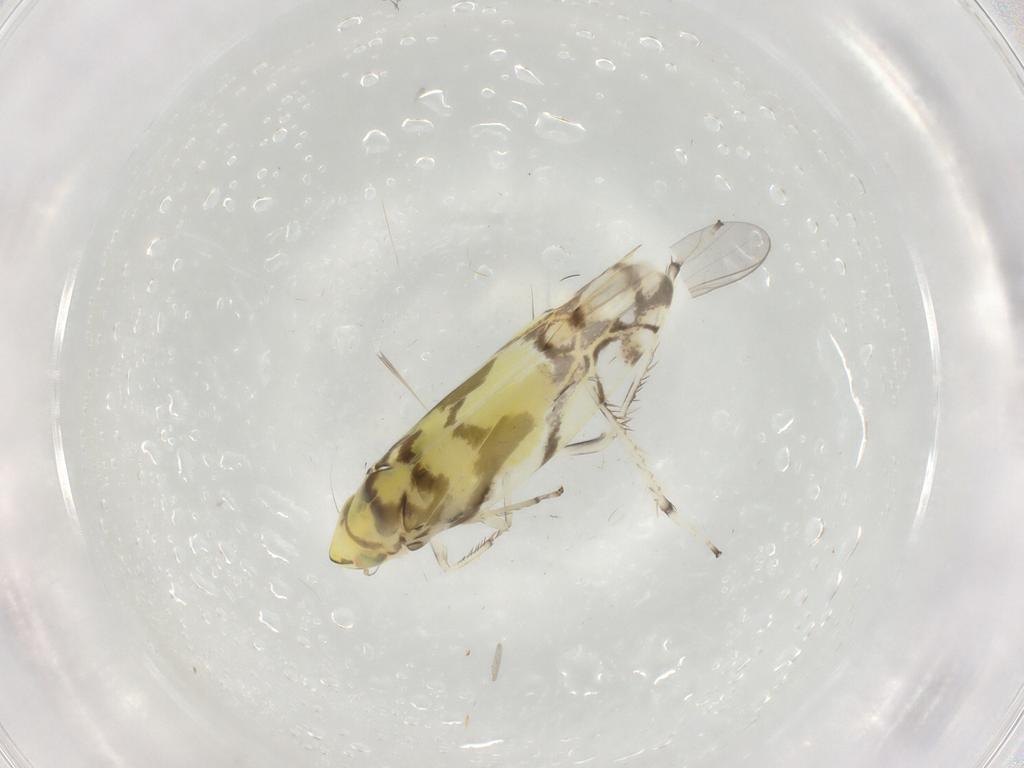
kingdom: Animalia
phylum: Arthropoda
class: Insecta
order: Hemiptera
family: Cicadellidae
